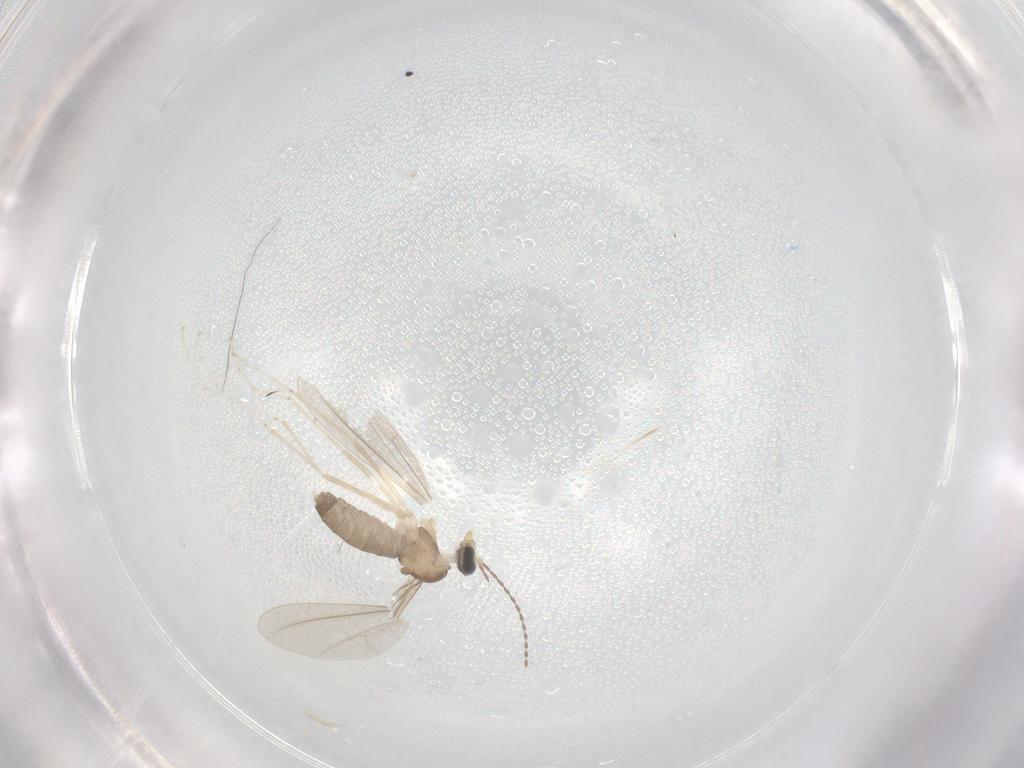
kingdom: Animalia
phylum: Arthropoda
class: Insecta
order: Diptera
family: Cecidomyiidae
